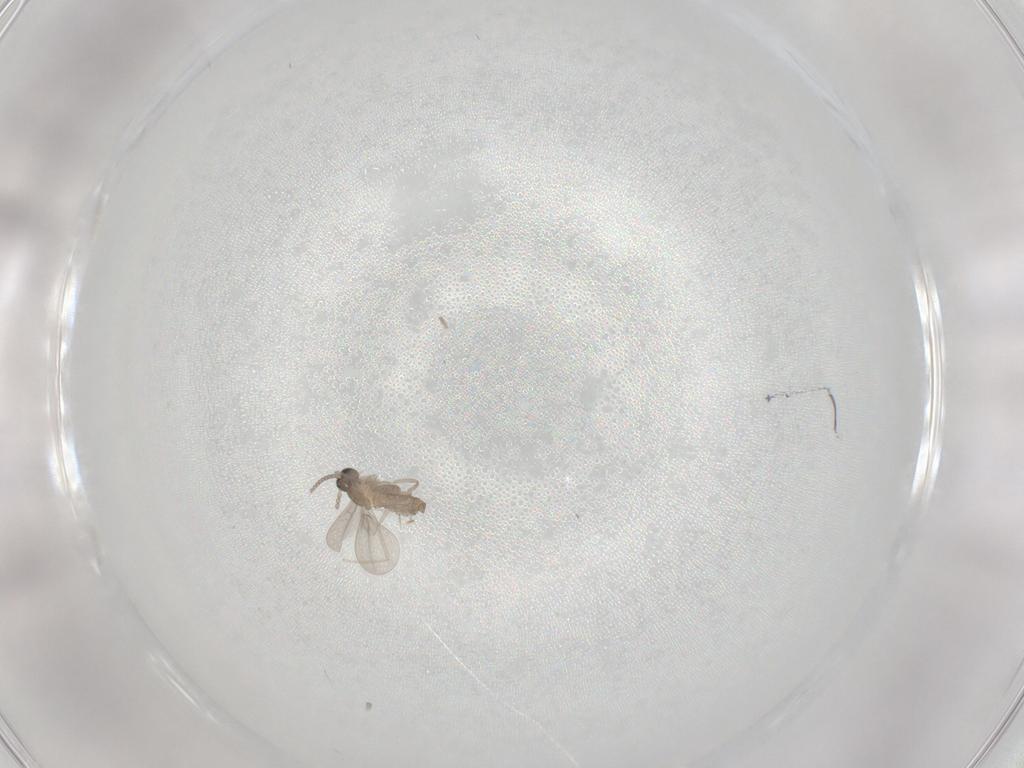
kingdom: Animalia
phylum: Arthropoda
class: Insecta
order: Diptera
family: Cecidomyiidae
